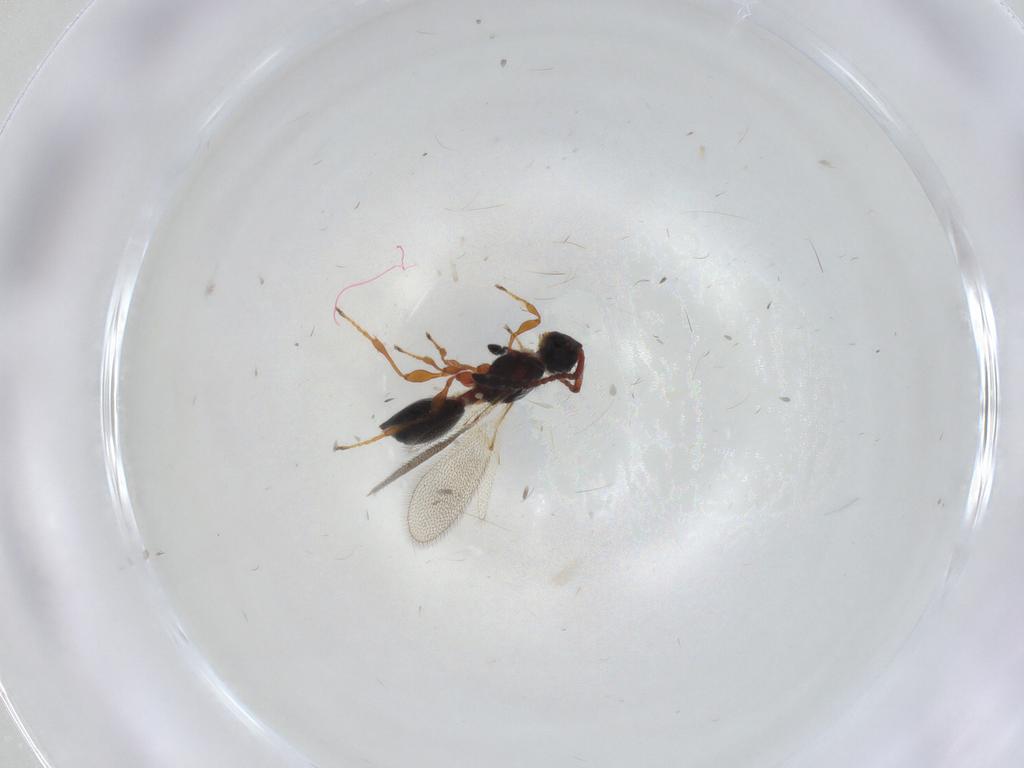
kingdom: Animalia
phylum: Arthropoda
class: Insecta
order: Hymenoptera
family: Diapriidae
